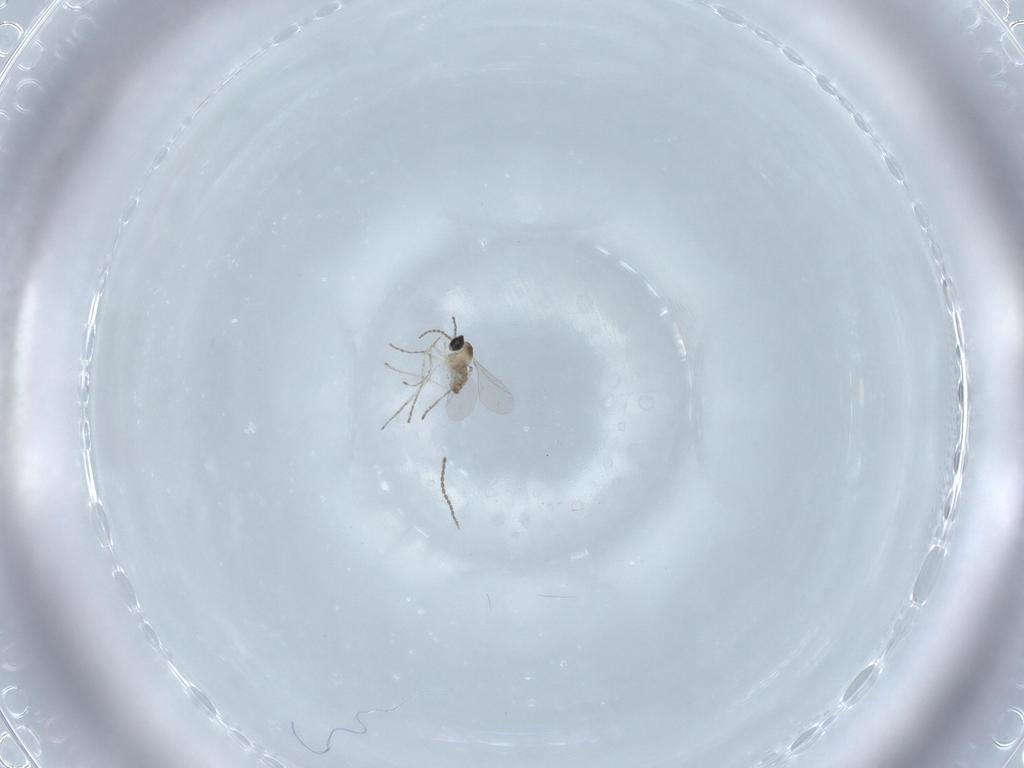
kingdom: Animalia
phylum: Arthropoda
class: Insecta
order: Diptera
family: Cecidomyiidae
